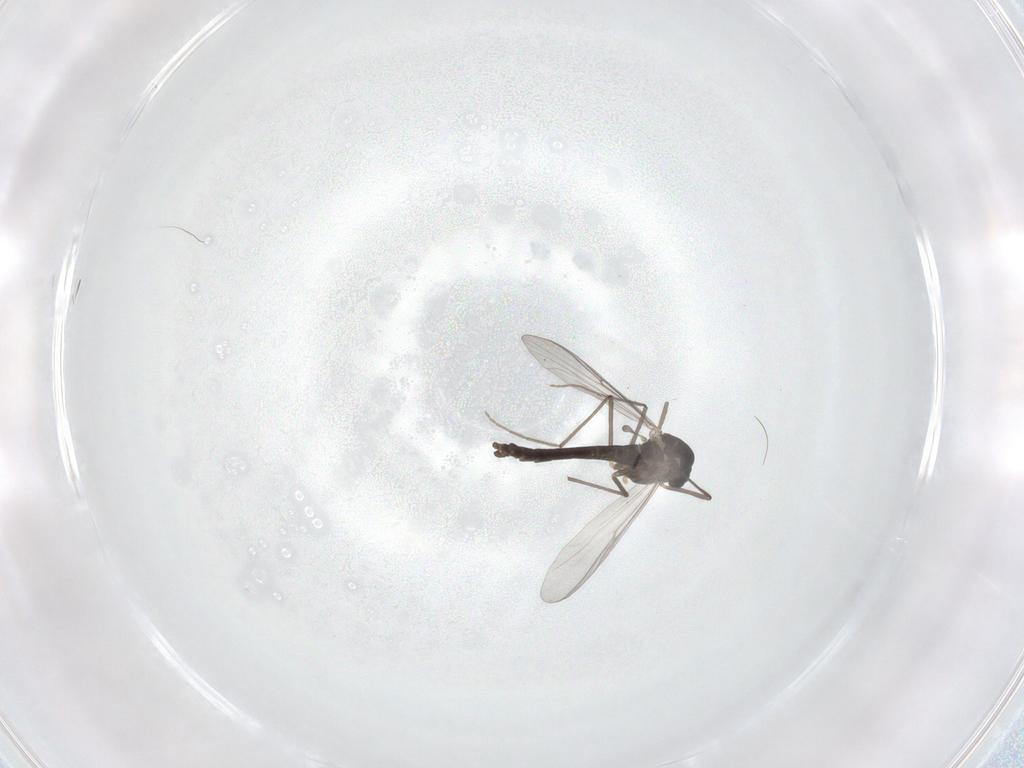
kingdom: Animalia
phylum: Arthropoda
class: Insecta
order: Diptera
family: Chironomidae
